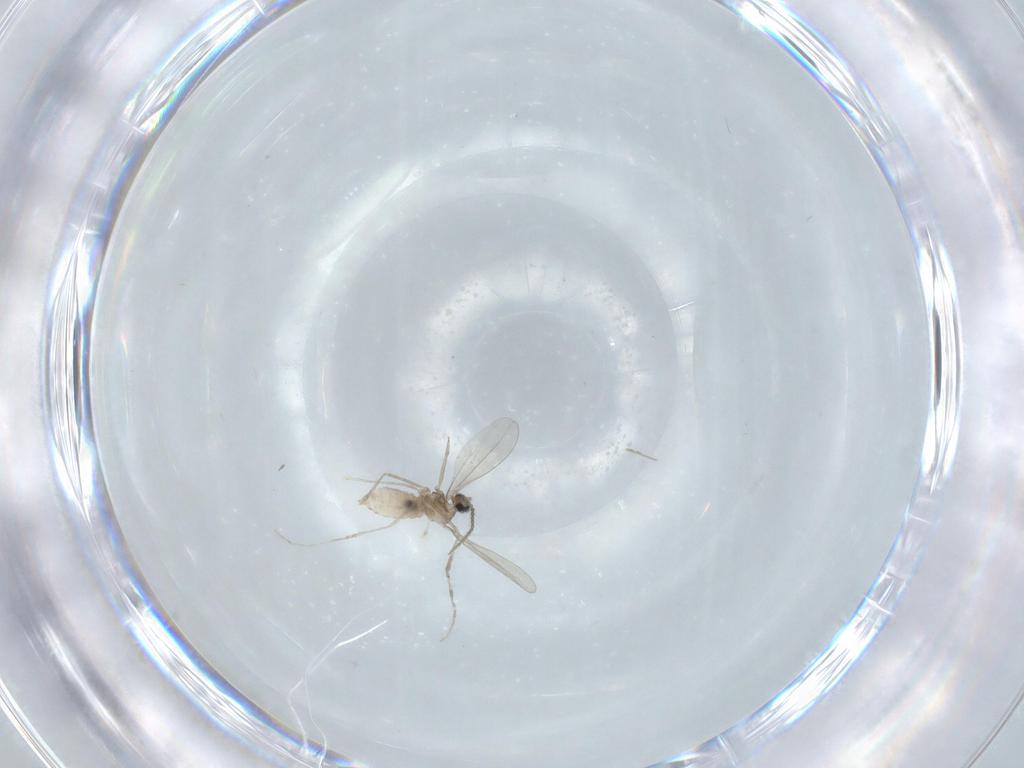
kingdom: Animalia
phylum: Arthropoda
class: Insecta
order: Diptera
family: Cecidomyiidae
